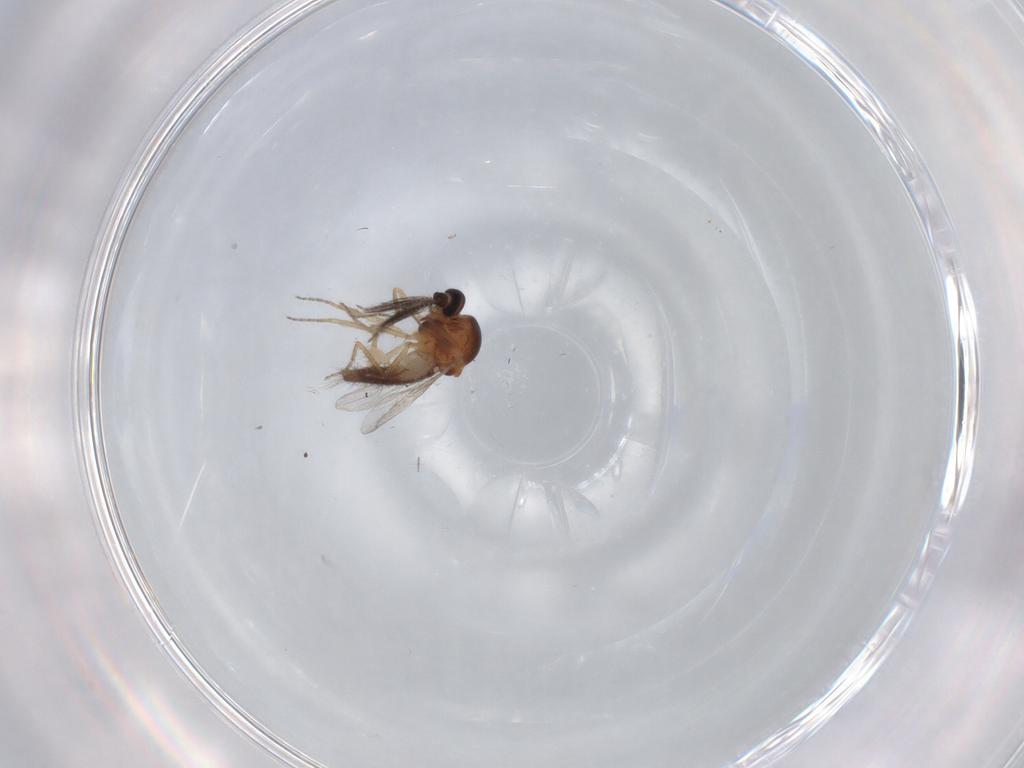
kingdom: Animalia
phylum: Arthropoda
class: Insecta
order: Diptera
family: Ceratopogonidae
